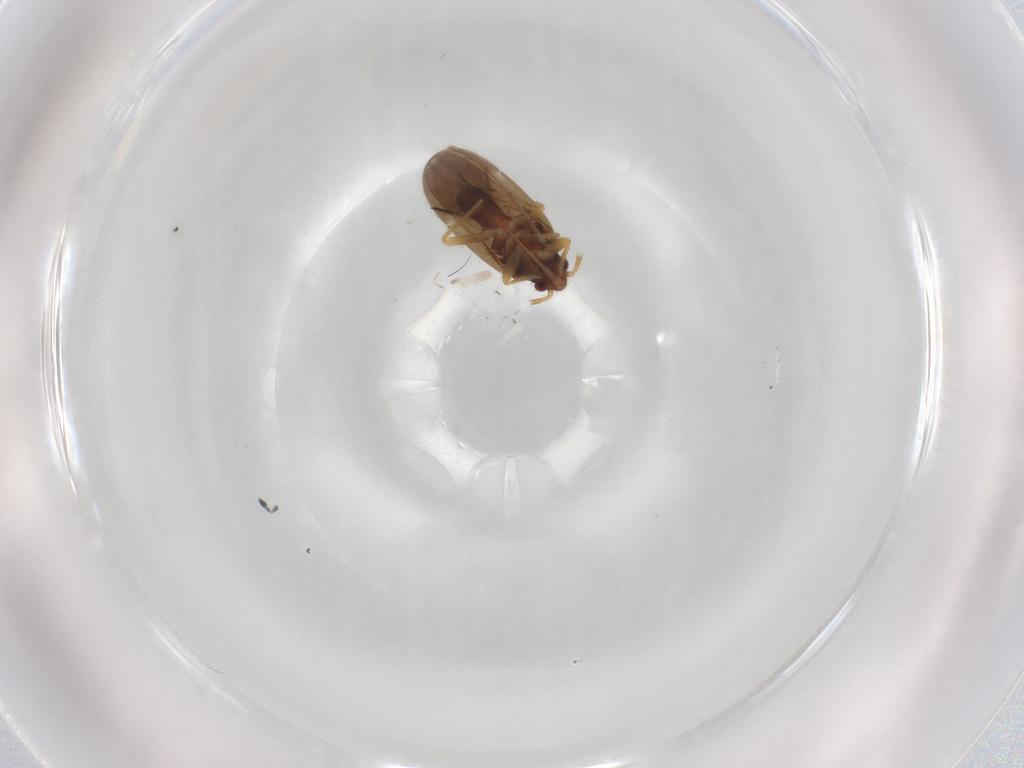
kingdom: Animalia
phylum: Arthropoda
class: Insecta
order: Hemiptera
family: Ceratocombidae
